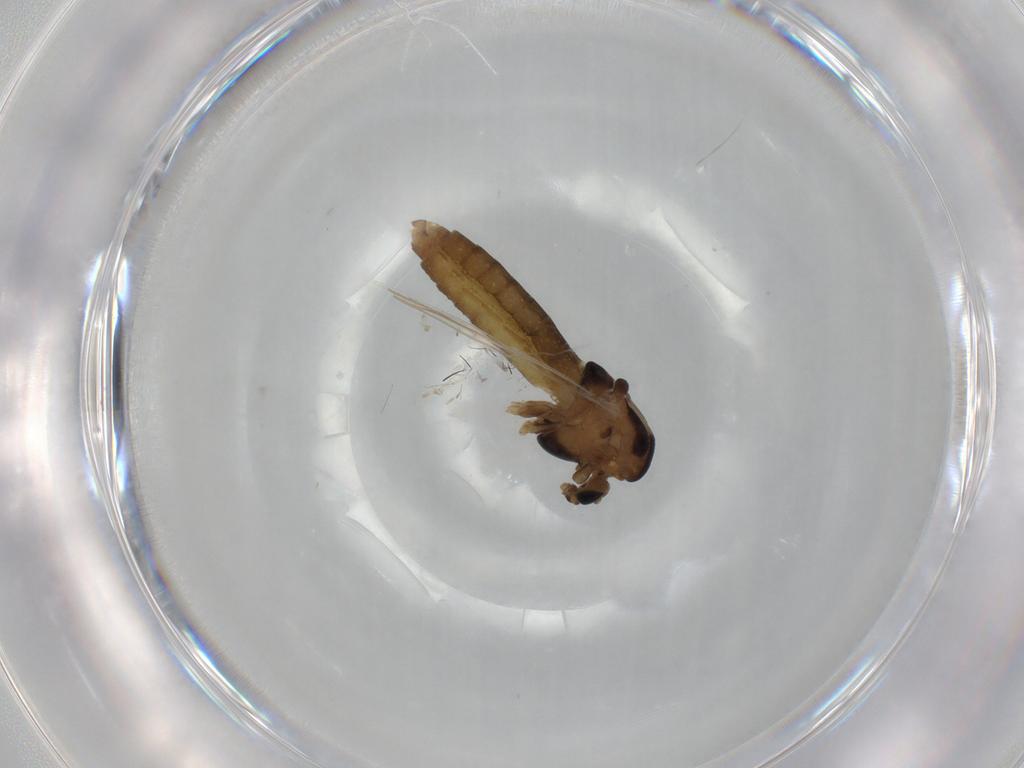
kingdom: Animalia
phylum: Arthropoda
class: Insecta
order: Diptera
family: Chironomidae
